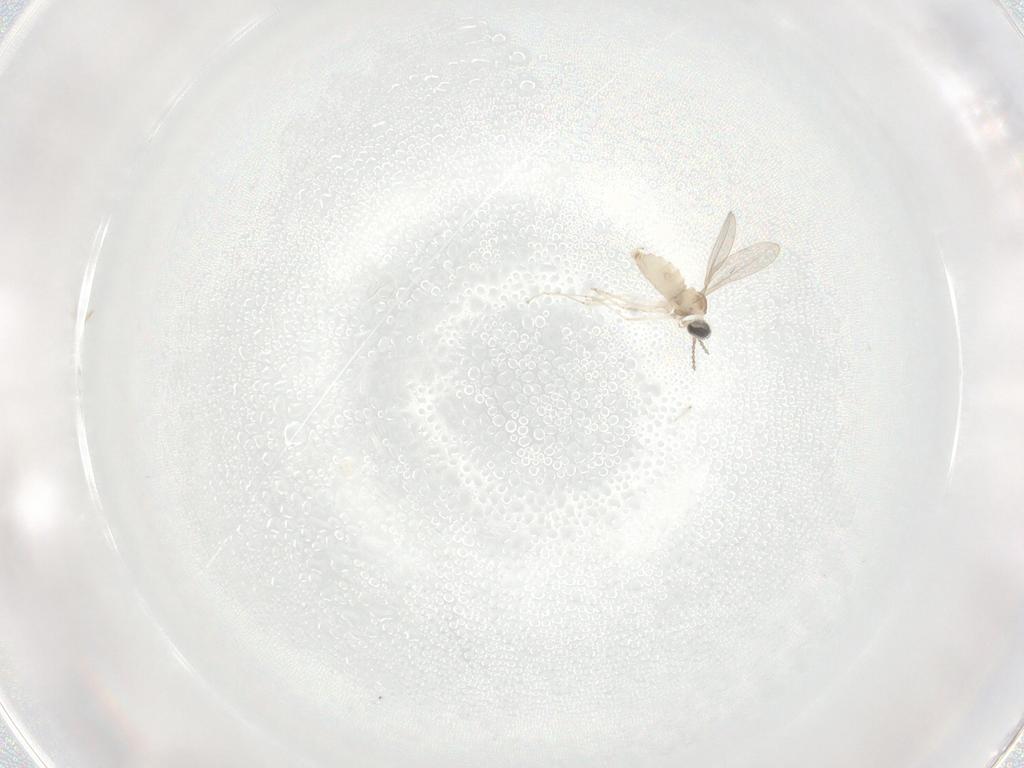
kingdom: Animalia
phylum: Arthropoda
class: Insecta
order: Diptera
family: Cecidomyiidae
